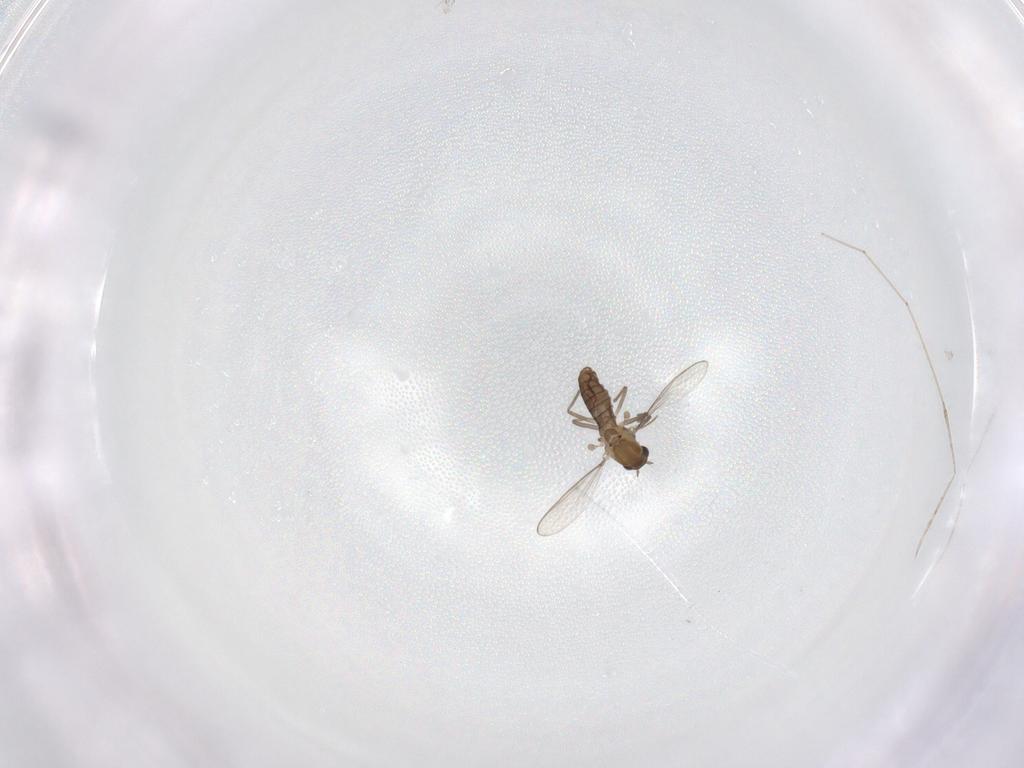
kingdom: Animalia
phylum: Arthropoda
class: Insecta
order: Diptera
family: Chironomidae
